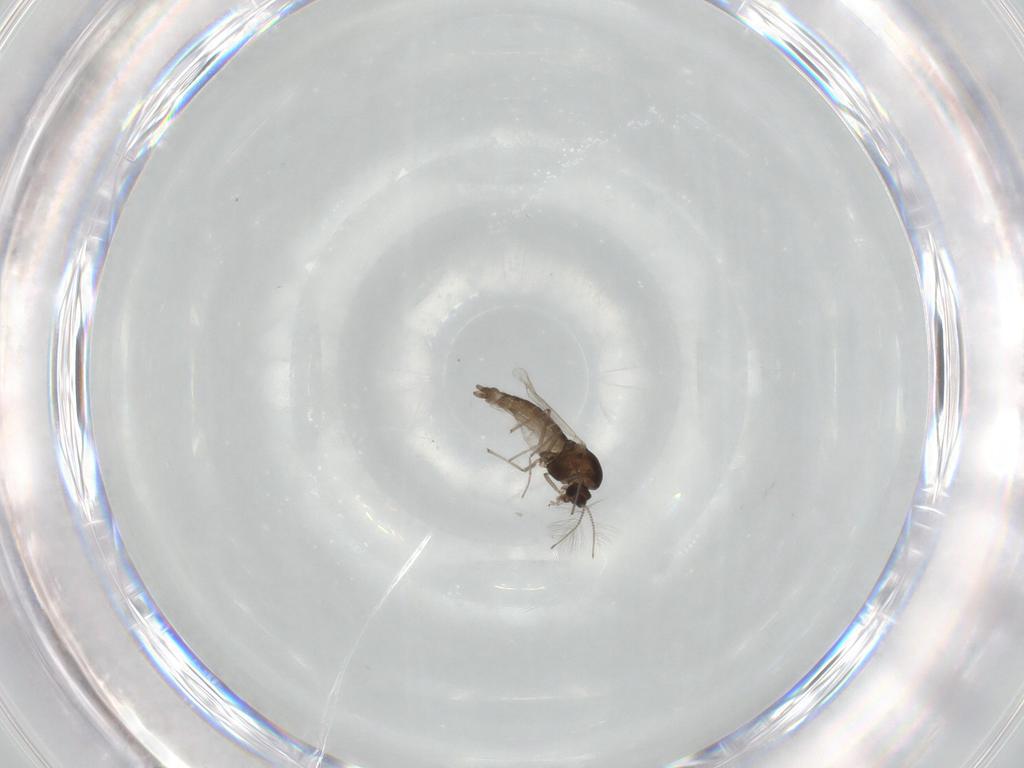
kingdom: Animalia
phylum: Arthropoda
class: Insecta
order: Diptera
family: Chironomidae
